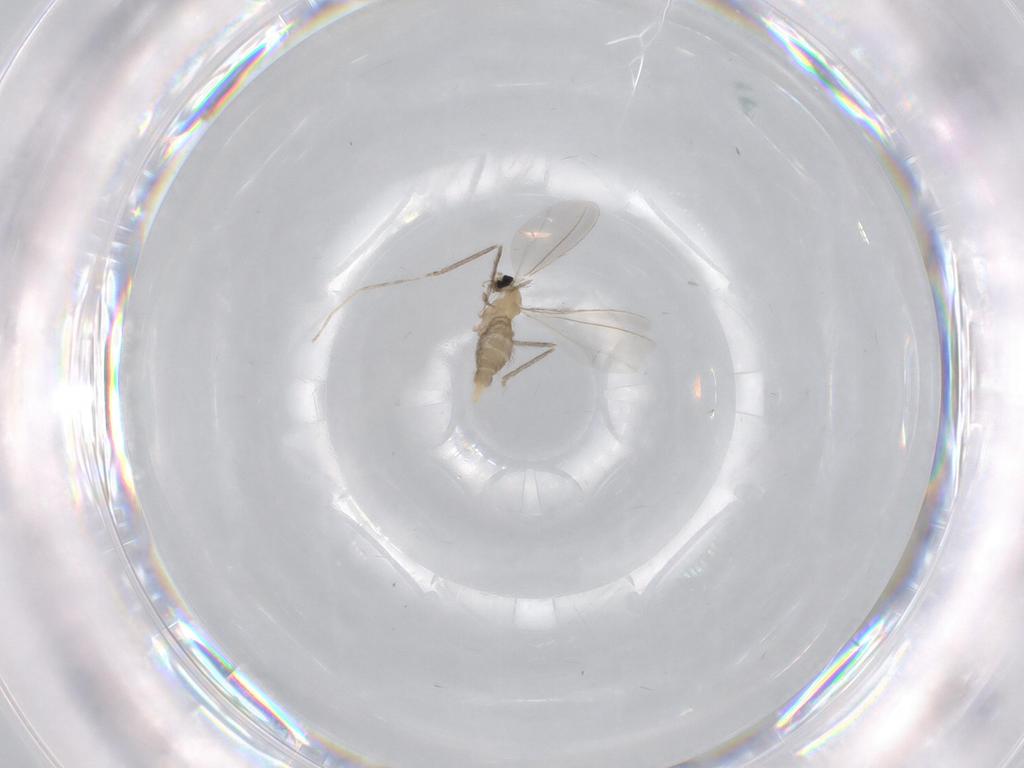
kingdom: Animalia
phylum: Arthropoda
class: Insecta
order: Diptera
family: Cecidomyiidae
